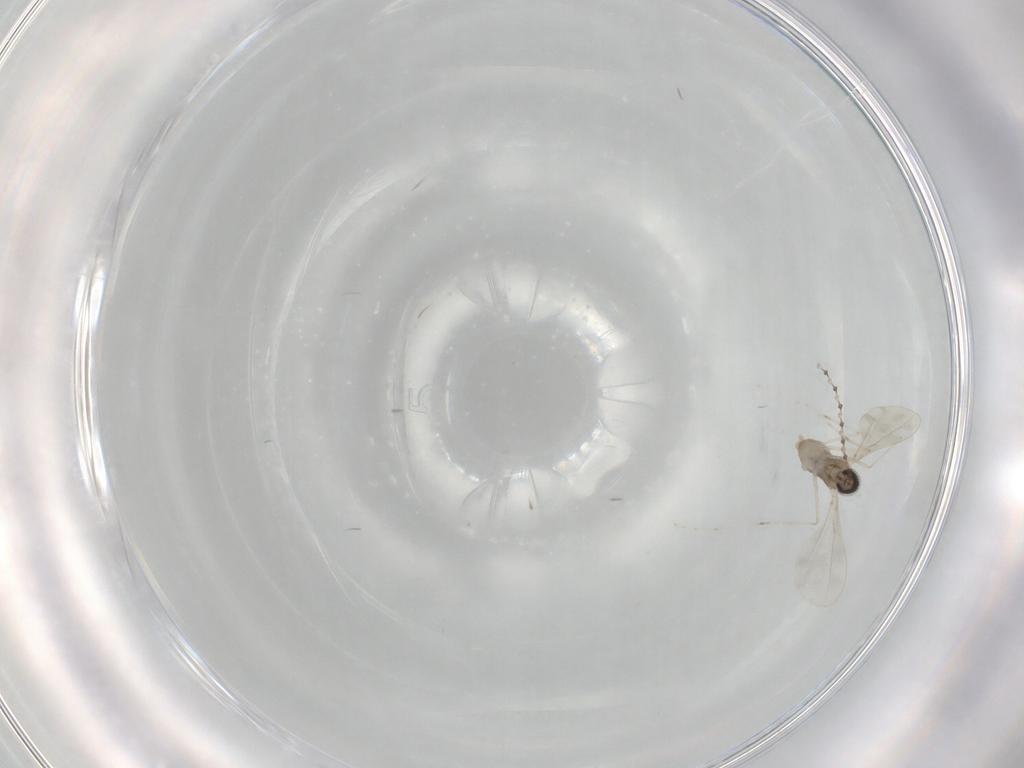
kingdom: Animalia
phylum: Arthropoda
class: Insecta
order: Diptera
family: Cecidomyiidae
